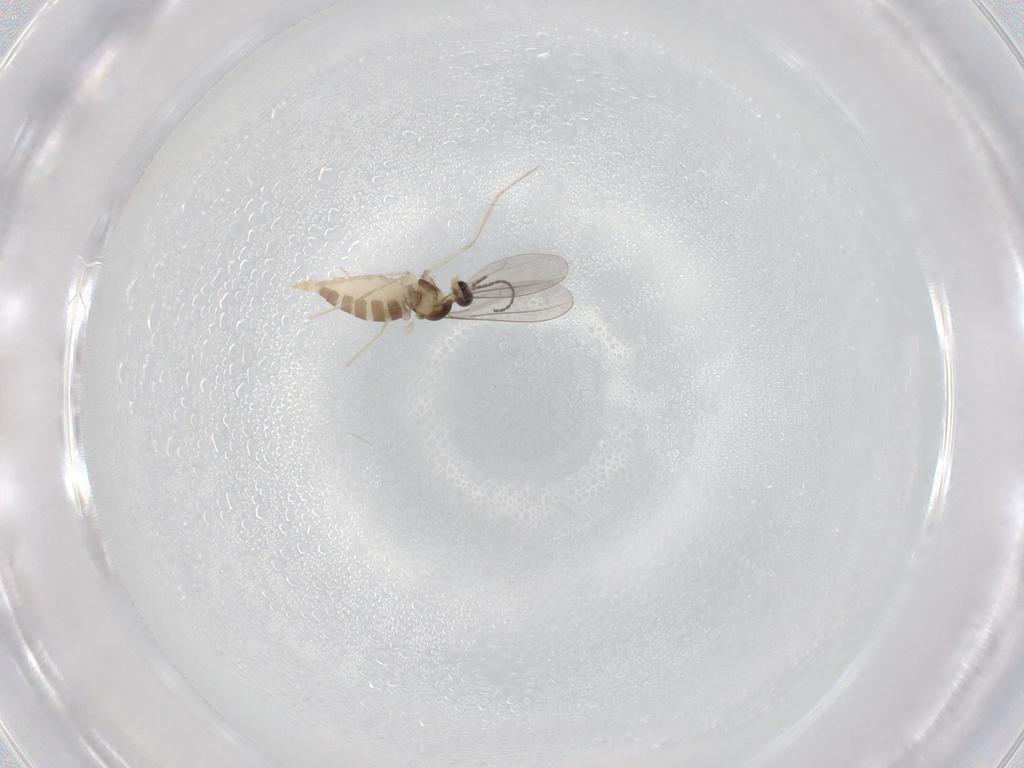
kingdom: Animalia
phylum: Arthropoda
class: Insecta
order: Diptera
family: Cecidomyiidae
